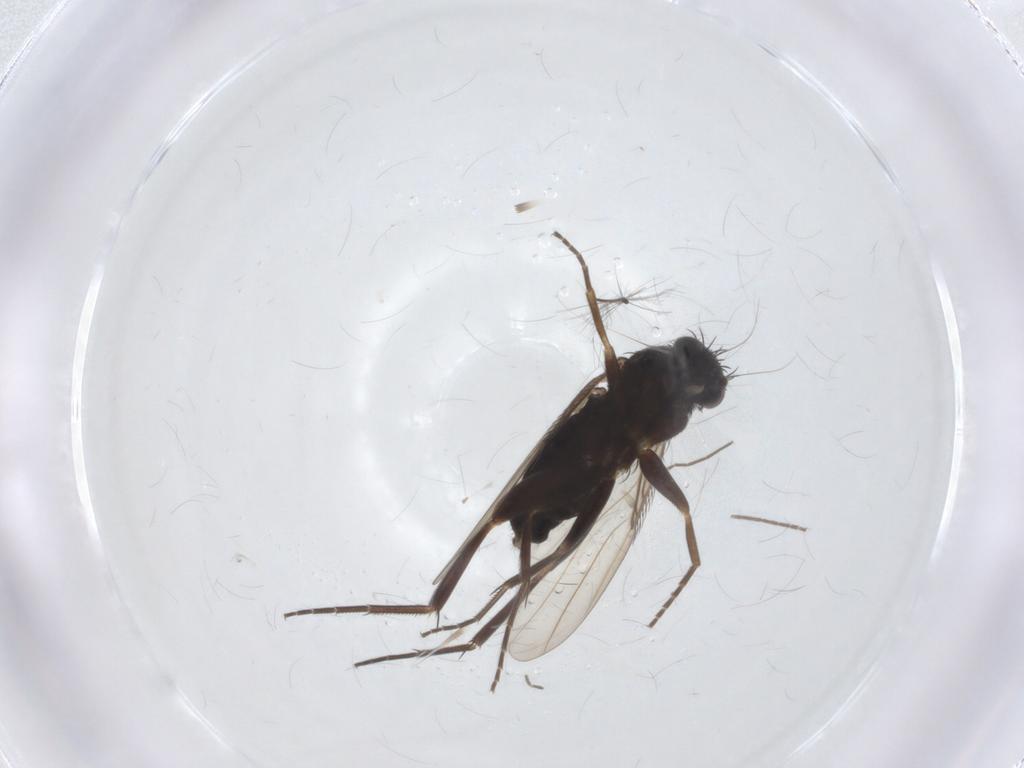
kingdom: Animalia
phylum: Arthropoda
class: Insecta
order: Diptera
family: Phoridae
